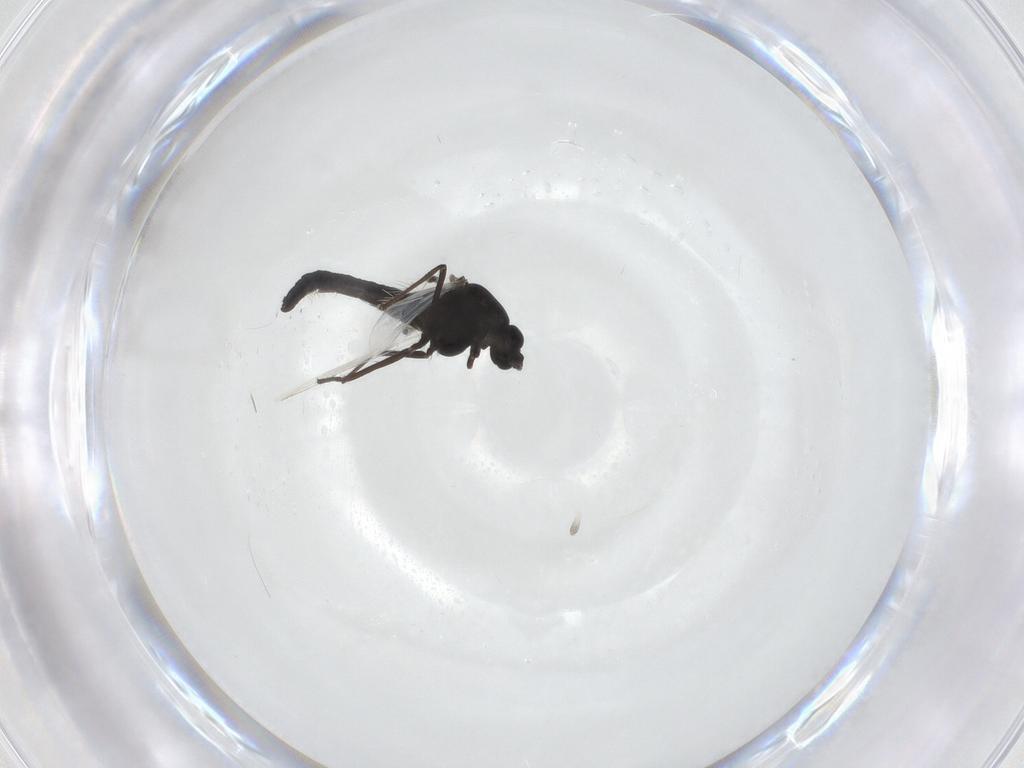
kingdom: Animalia
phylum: Arthropoda
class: Insecta
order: Diptera
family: Chironomidae
